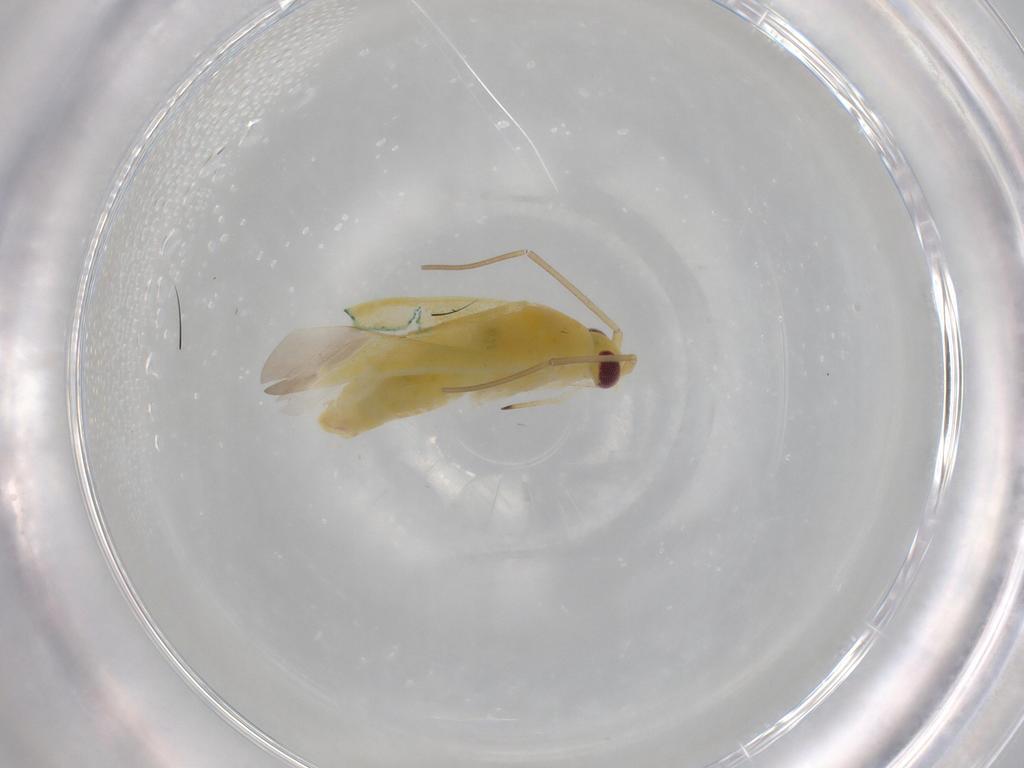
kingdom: Animalia
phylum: Arthropoda
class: Insecta
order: Hemiptera
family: Miridae
